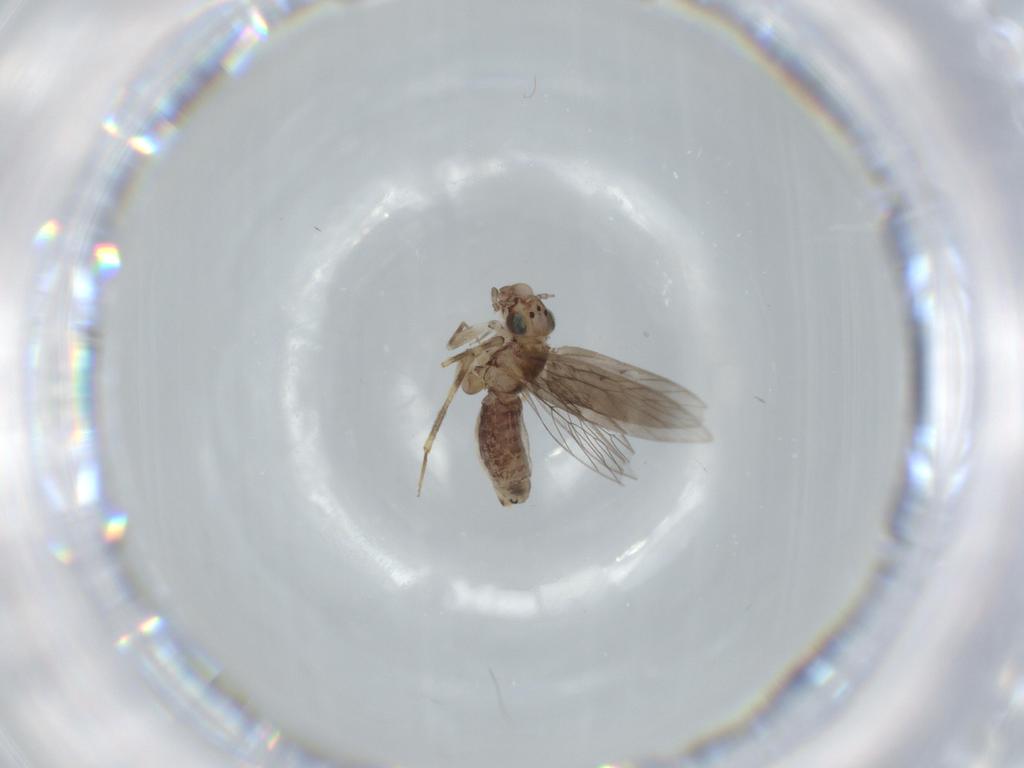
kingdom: Animalia
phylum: Arthropoda
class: Insecta
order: Psocodea
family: Lepidopsocidae
